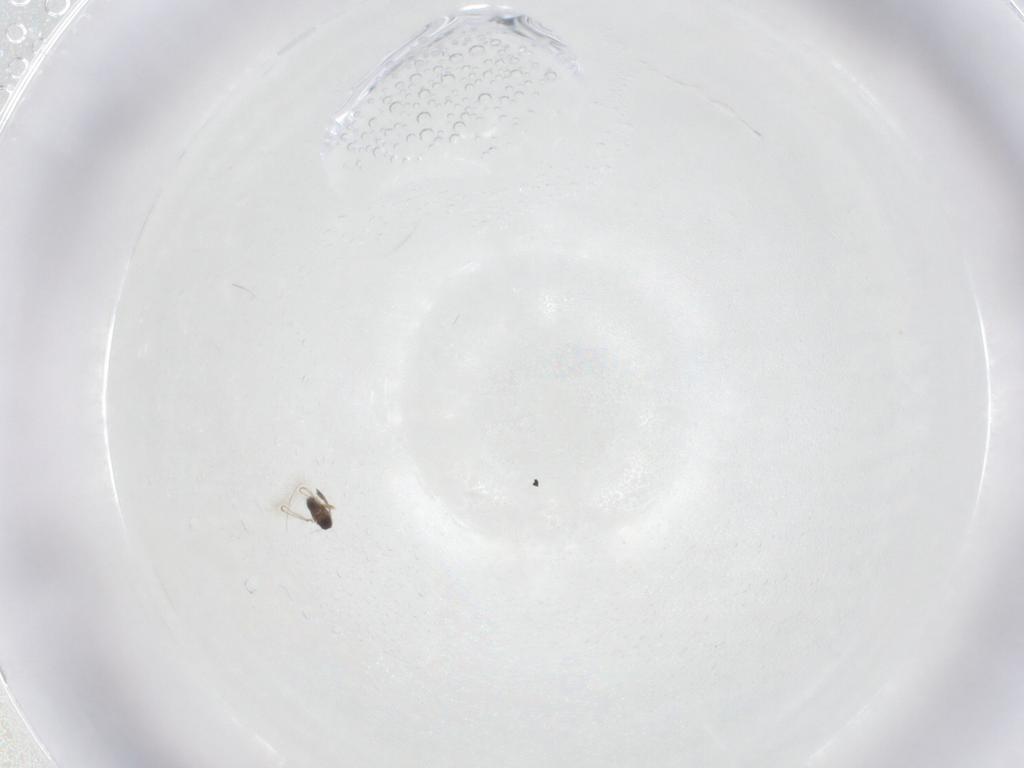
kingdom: Animalia
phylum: Arthropoda
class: Insecta
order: Hymenoptera
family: Mymaridae
